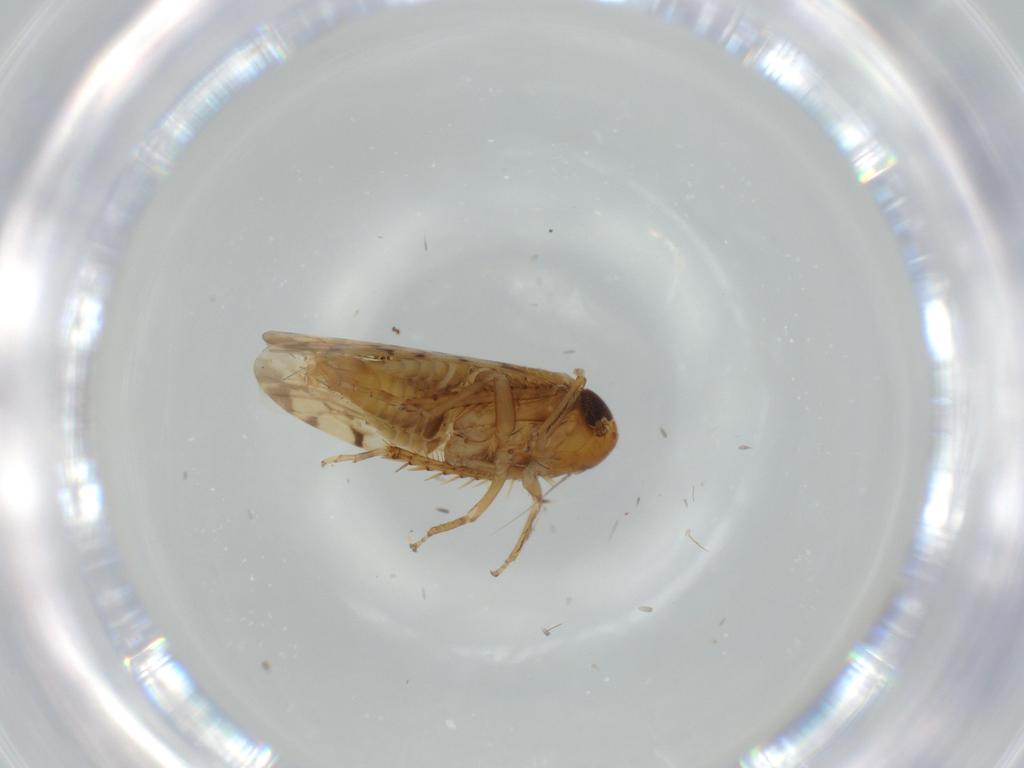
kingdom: Animalia
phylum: Arthropoda
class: Insecta
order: Hemiptera
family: Cicadellidae
